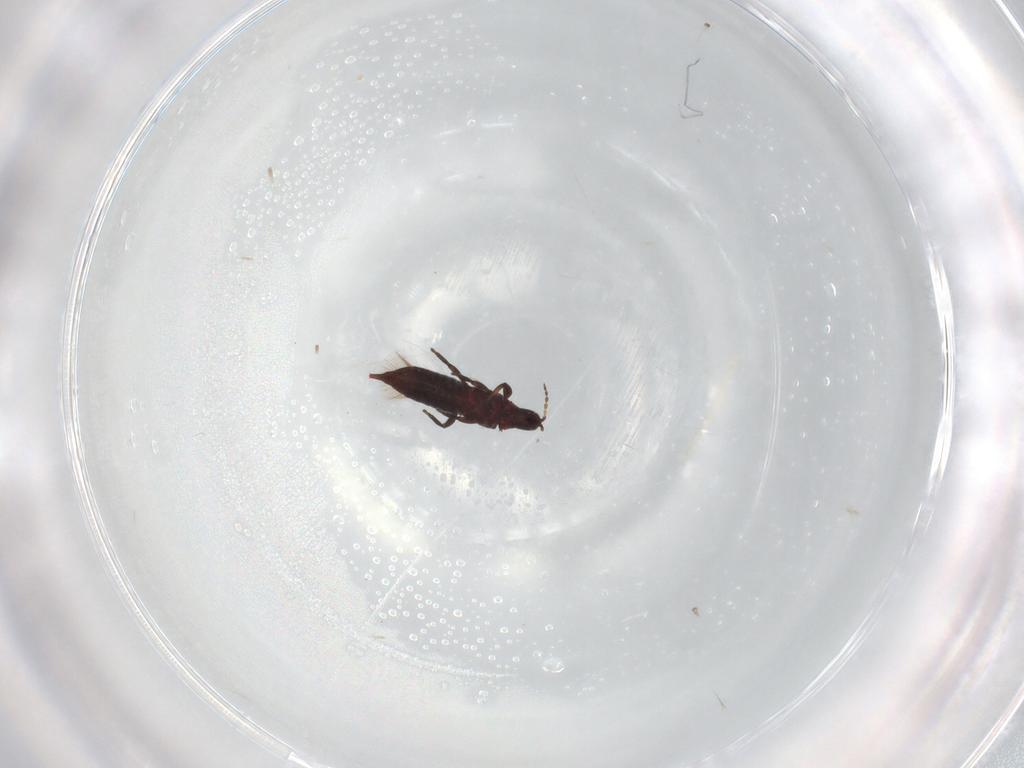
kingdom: Animalia
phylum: Arthropoda
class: Insecta
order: Thysanoptera
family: Phlaeothripidae
